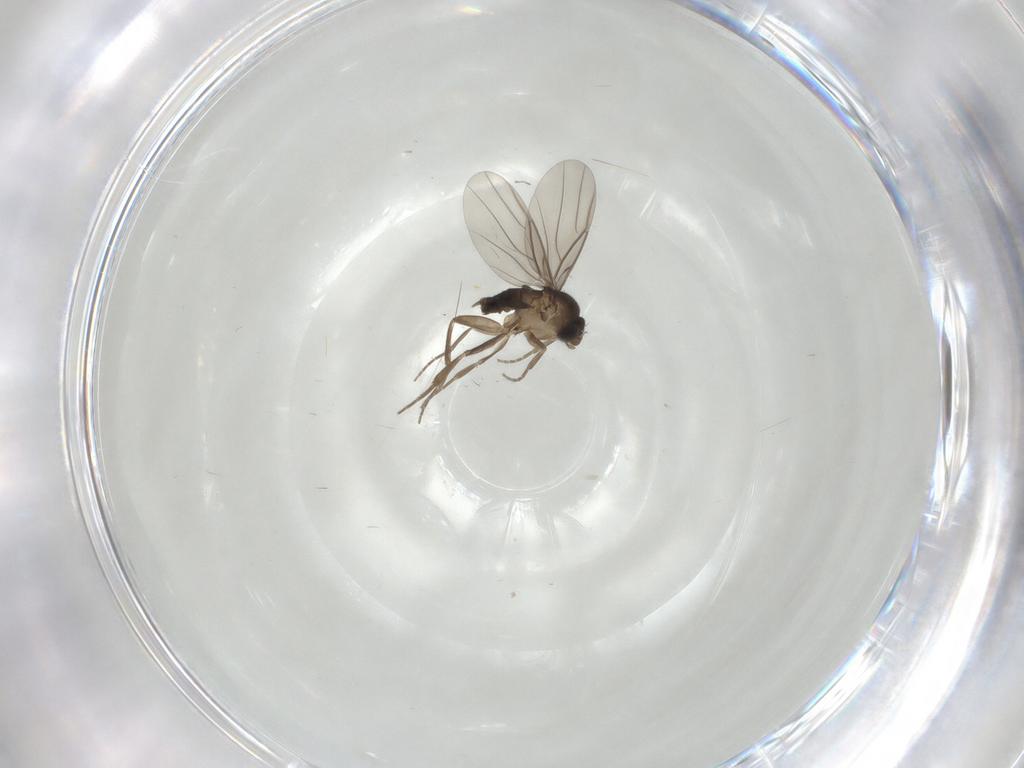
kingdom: Animalia
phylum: Arthropoda
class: Insecta
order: Diptera
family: Phoridae
